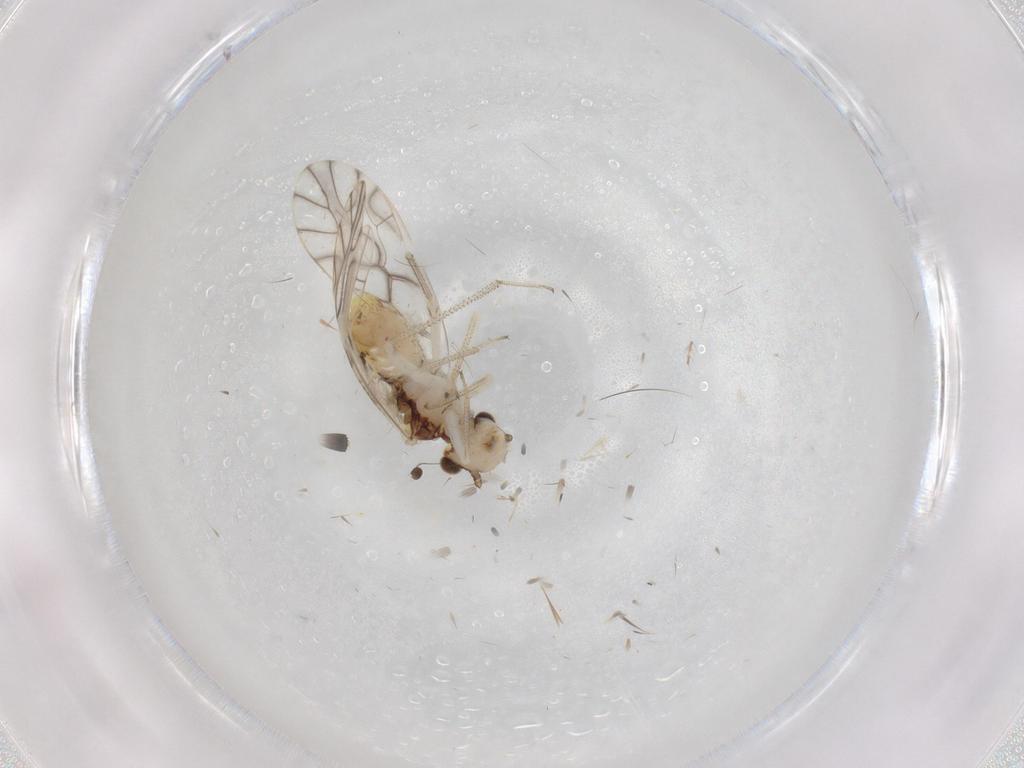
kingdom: Animalia
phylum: Arthropoda
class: Insecta
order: Psocodea
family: Caeciliusidae
